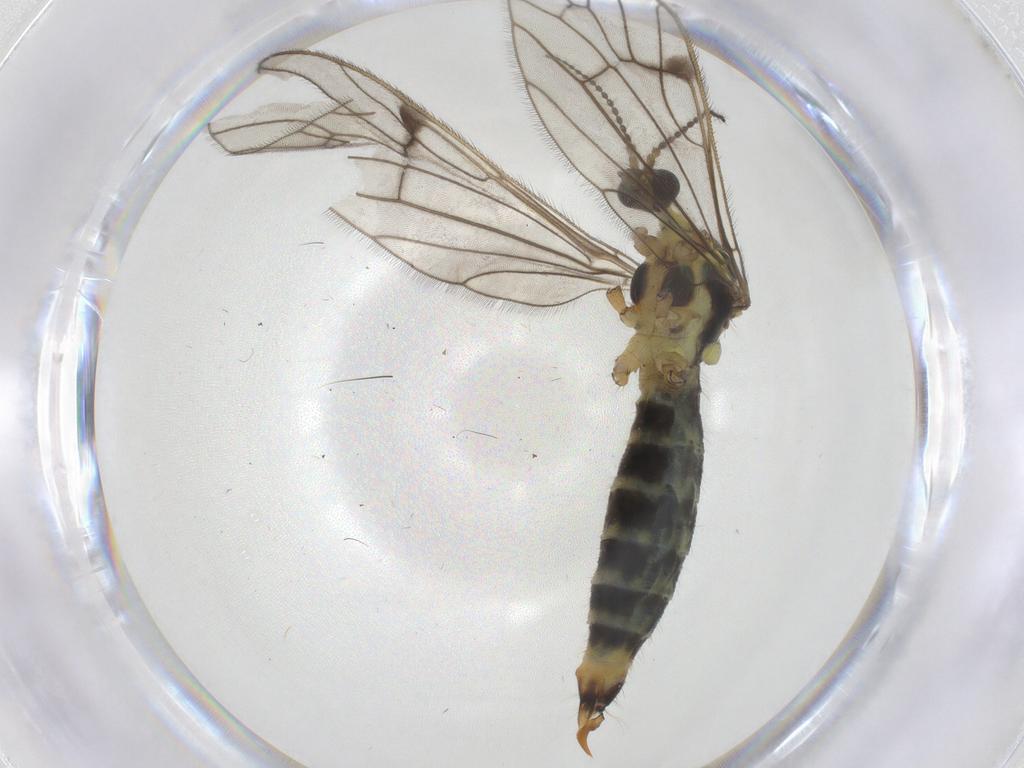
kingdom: Animalia
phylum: Arthropoda
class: Insecta
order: Diptera
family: Limoniidae
